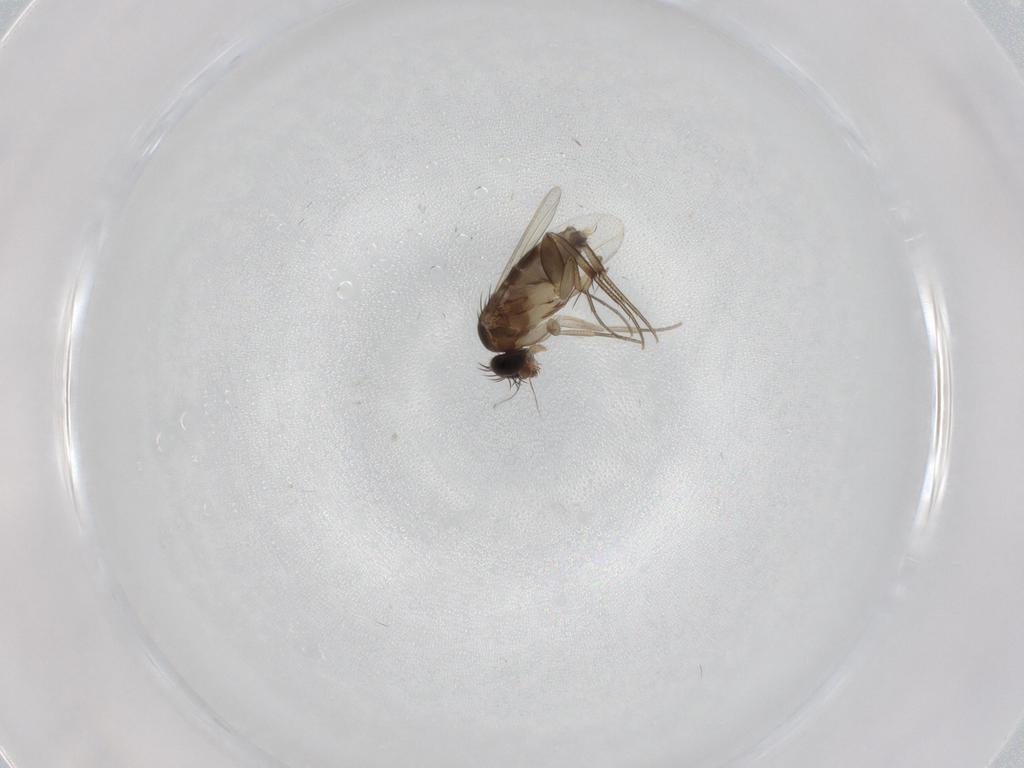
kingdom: Animalia
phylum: Arthropoda
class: Insecta
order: Diptera
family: Phoridae
